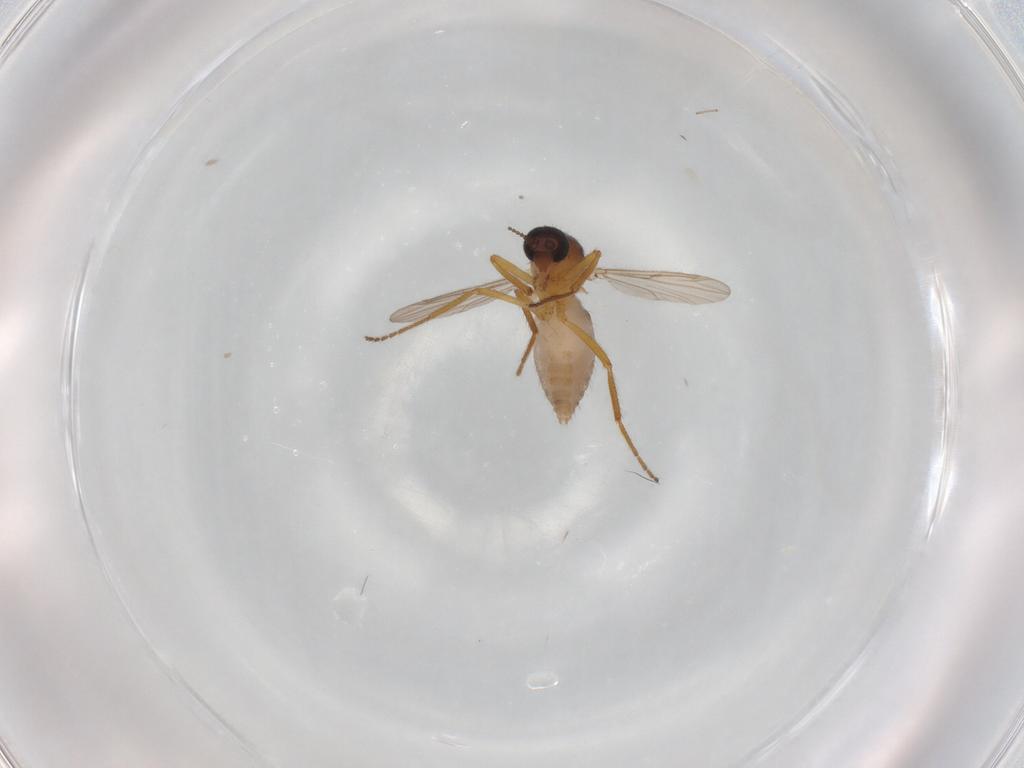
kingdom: Animalia
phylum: Arthropoda
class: Insecta
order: Diptera
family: Ceratopogonidae
